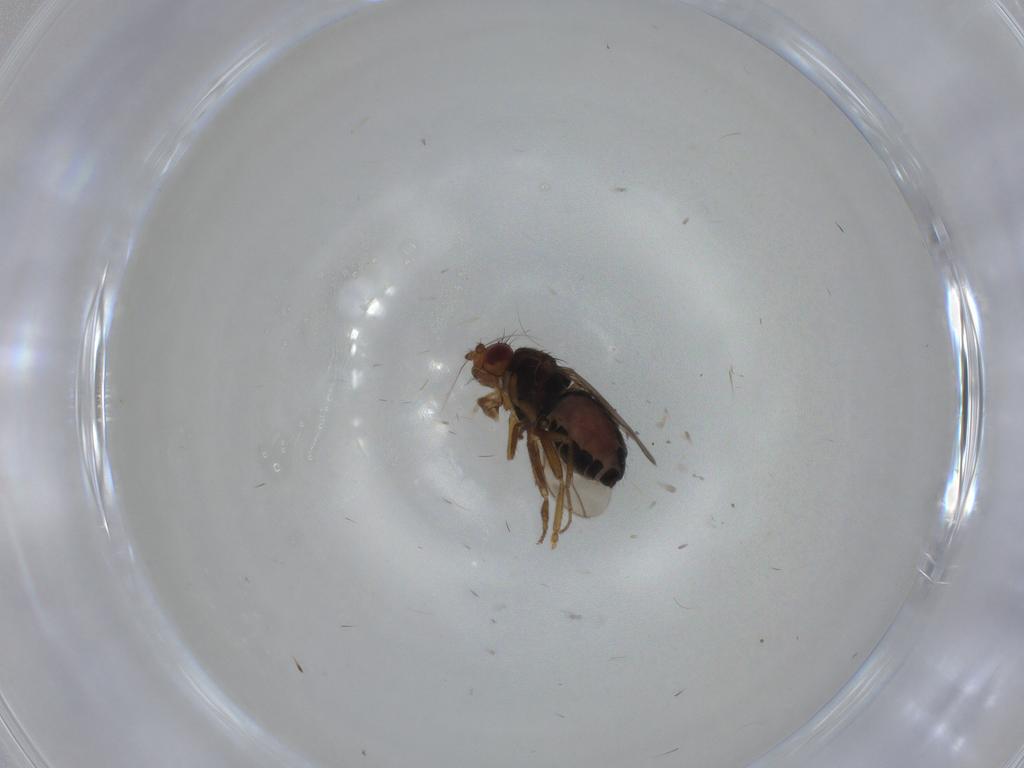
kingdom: Animalia
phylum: Arthropoda
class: Insecta
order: Diptera
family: Sphaeroceridae
